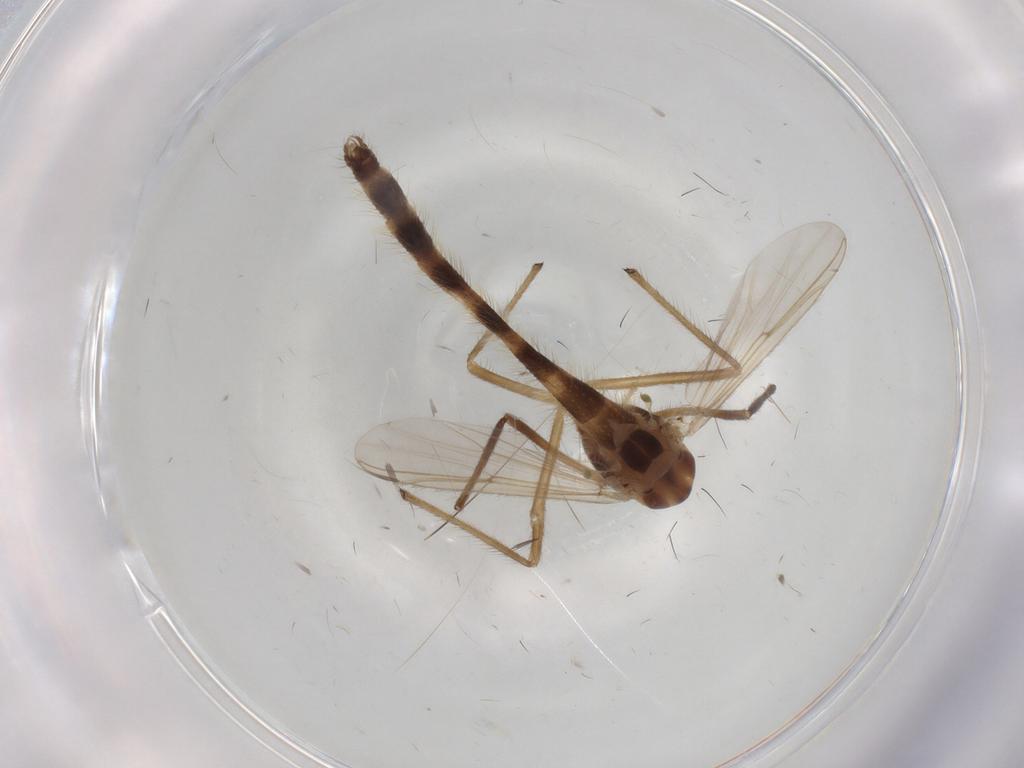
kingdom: Animalia
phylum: Arthropoda
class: Insecta
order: Diptera
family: Chironomidae
